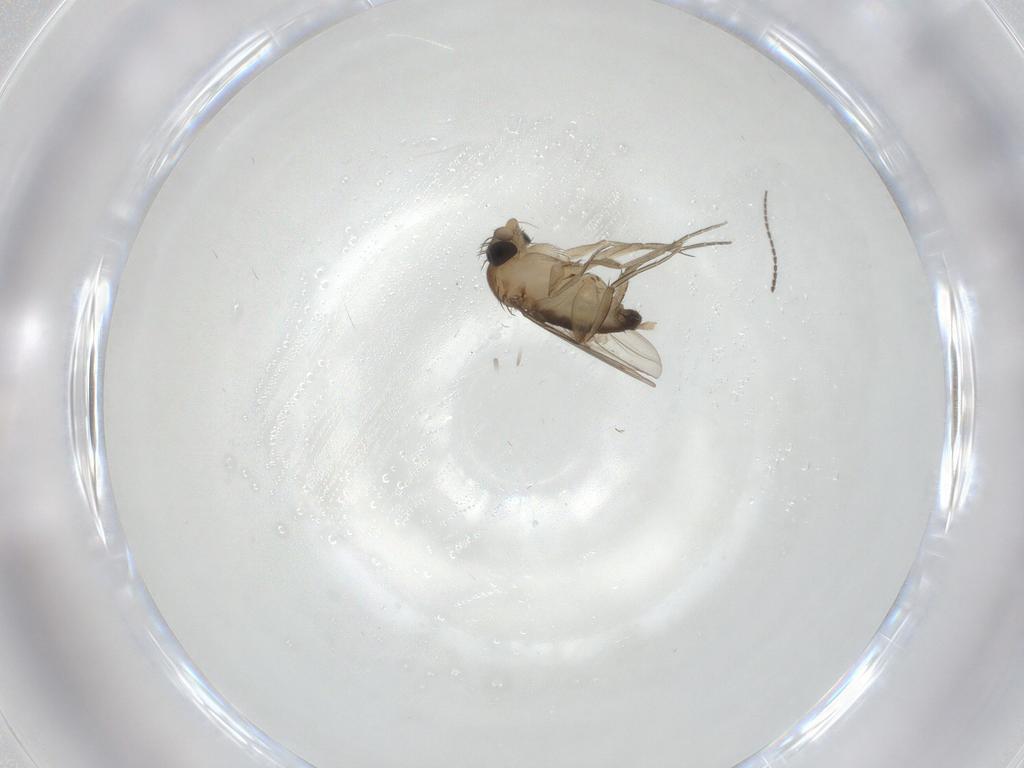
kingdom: Animalia
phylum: Arthropoda
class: Insecta
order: Diptera
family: Phoridae
